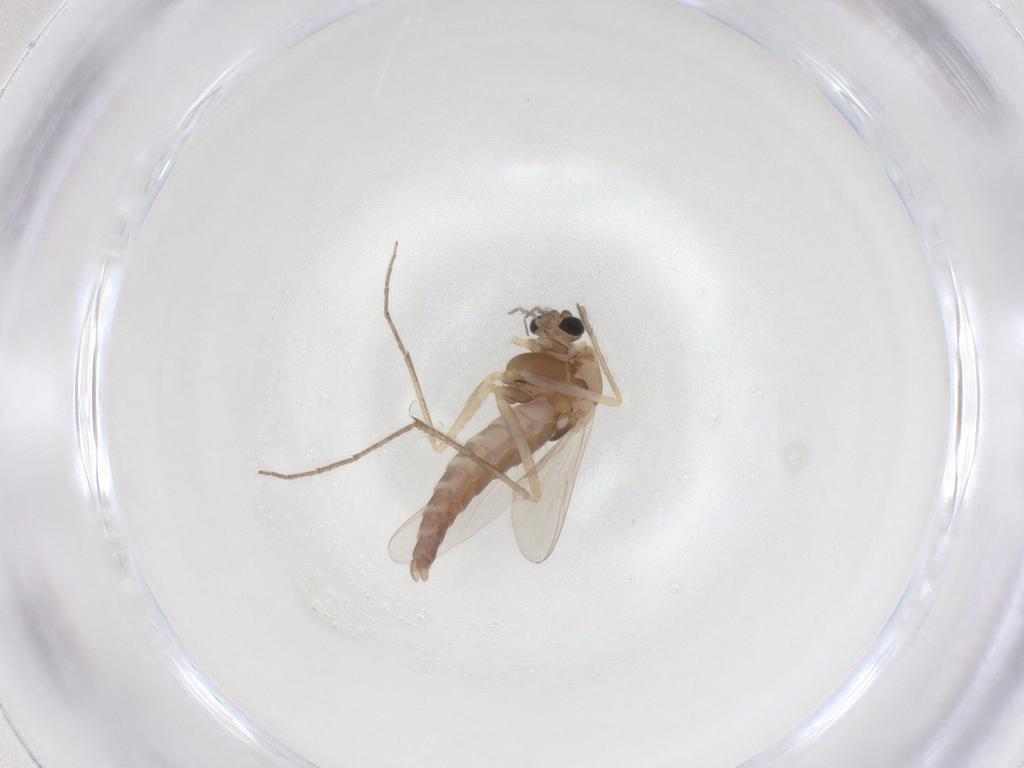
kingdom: Animalia
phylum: Arthropoda
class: Insecta
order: Diptera
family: Chironomidae
